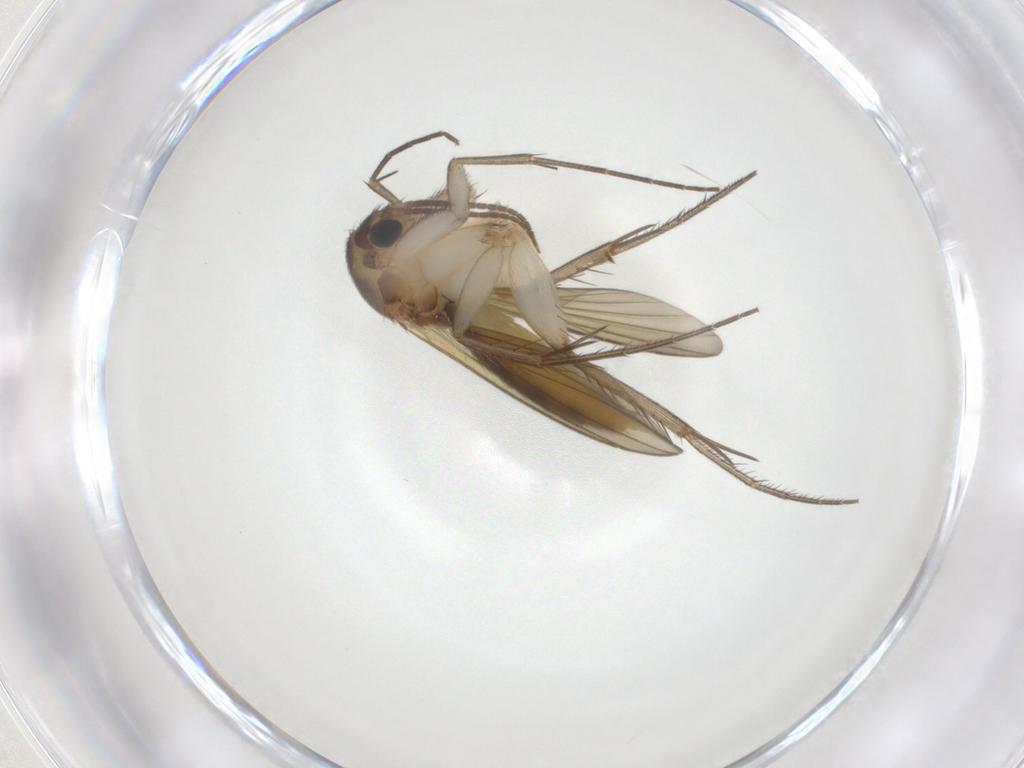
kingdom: Animalia
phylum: Arthropoda
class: Insecta
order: Diptera
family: Mycetophilidae
